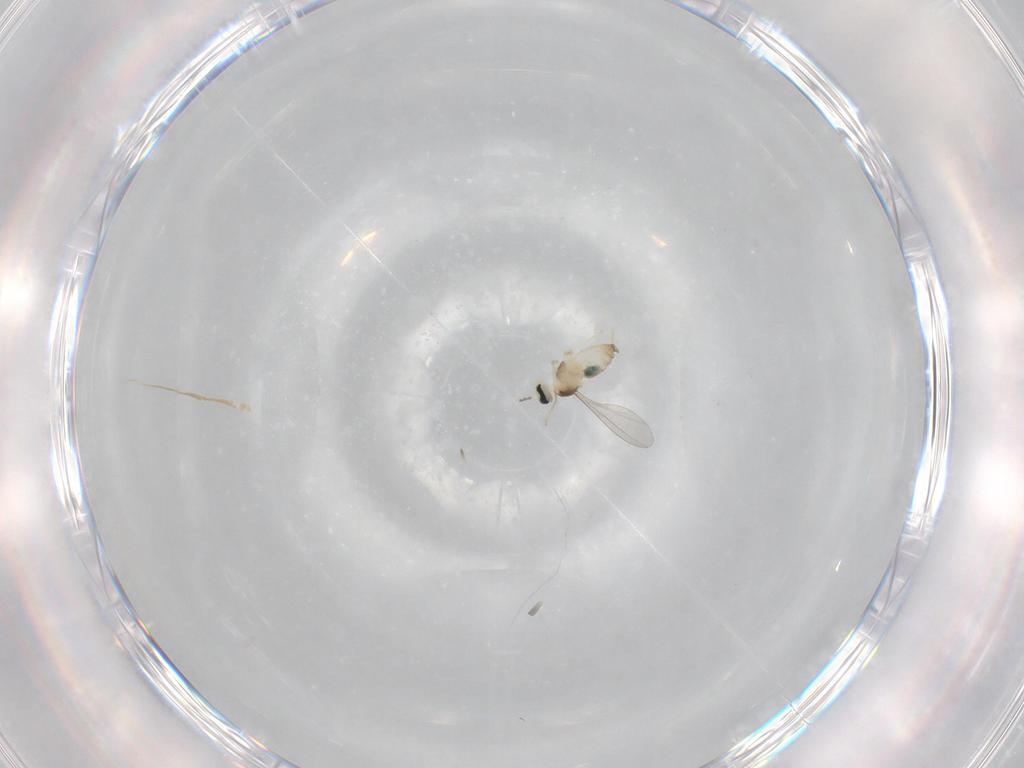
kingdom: Animalia
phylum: Arthropoda
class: Insecta
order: Diptera
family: Cecidomyiidae
